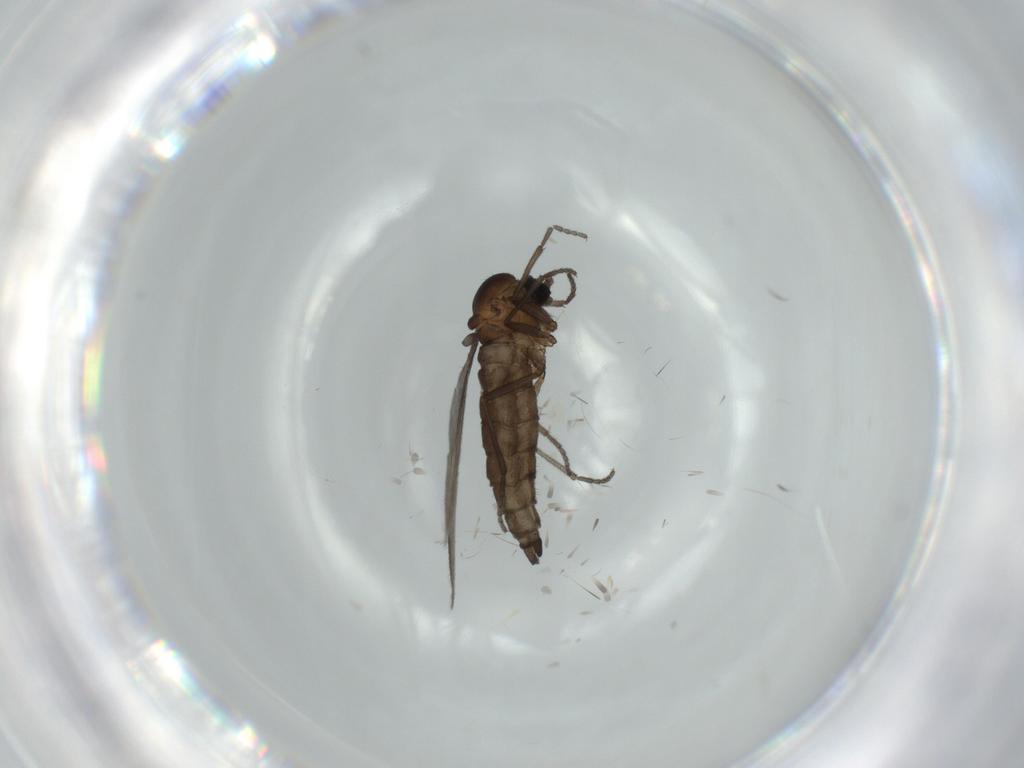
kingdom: Animalia
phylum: Arthropoda
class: Insecta
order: Diptera
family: Sciaridae
